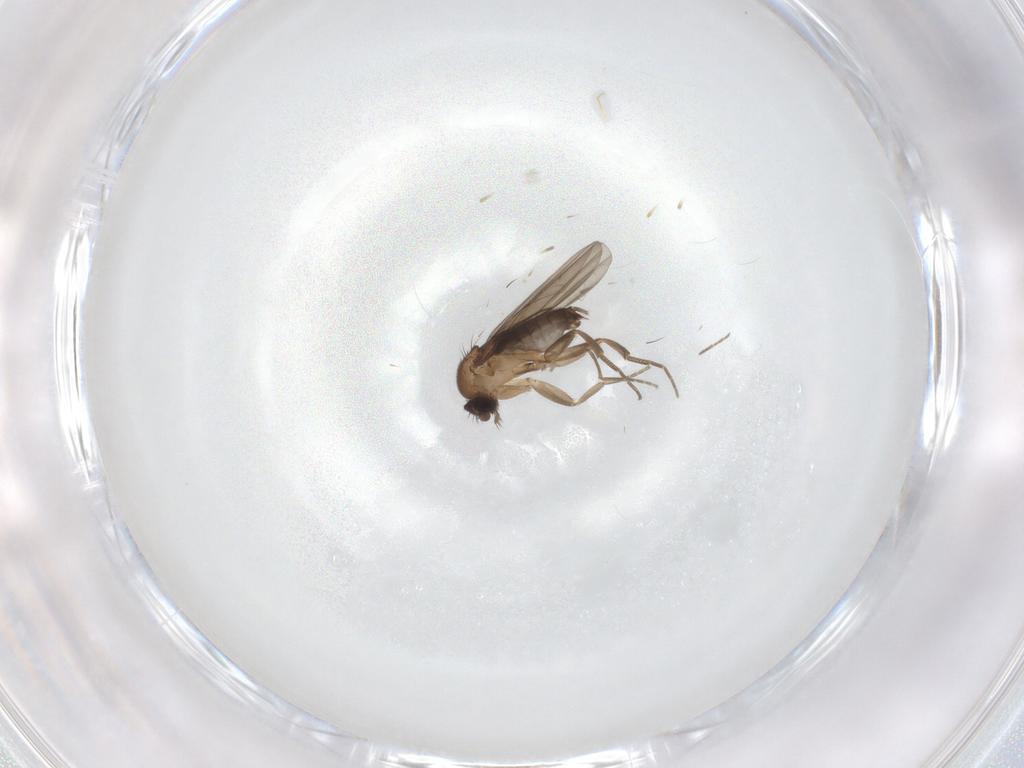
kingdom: Animalia
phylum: Arthropoda
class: Insecta
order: Diptera
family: Phoridae
